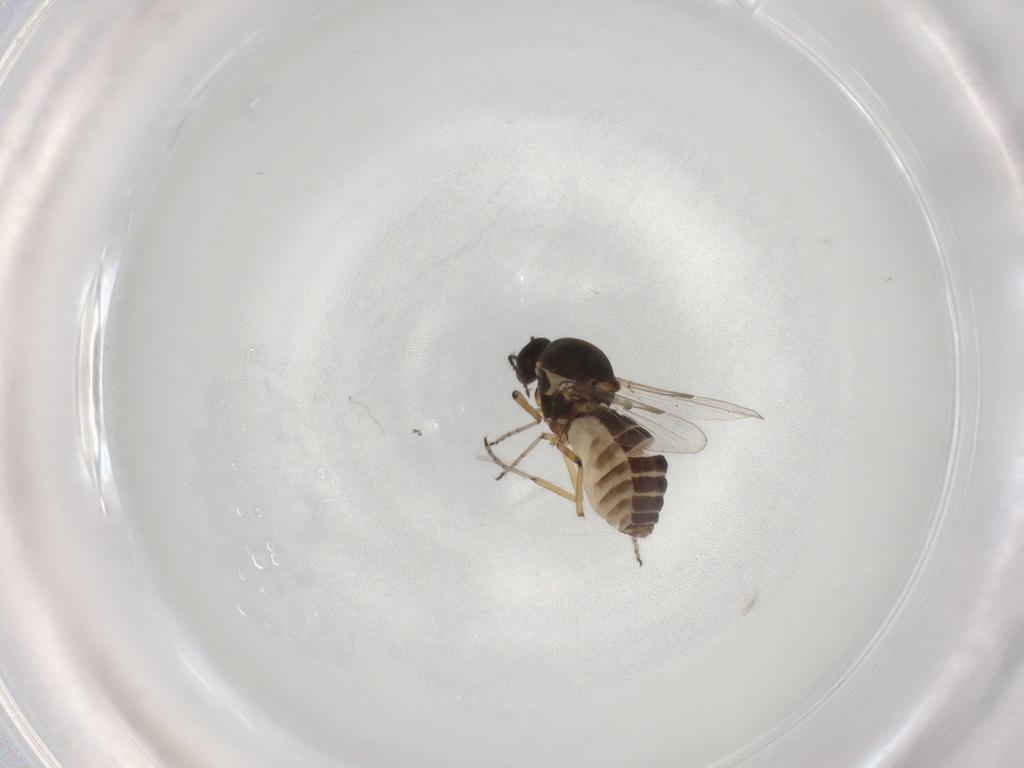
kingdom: Animalia
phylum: Arthropoda
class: Insecta
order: Diptera
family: Ceratopogonidae
